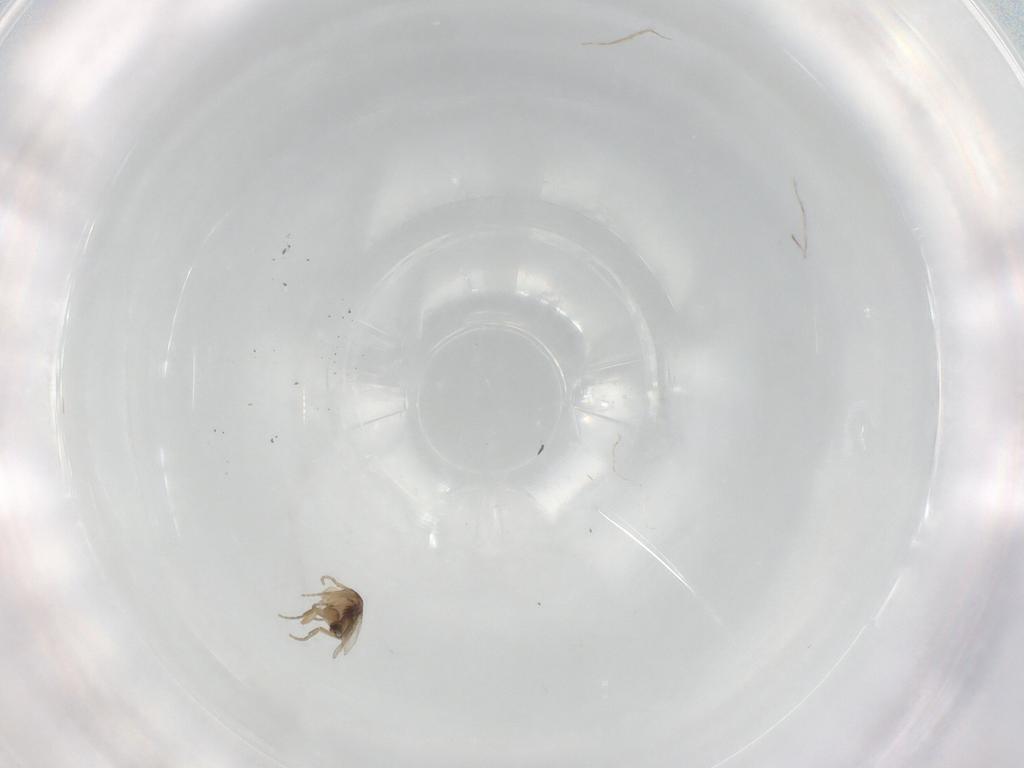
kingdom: Animalia
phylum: Arthropoda
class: Insecta
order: Diptera
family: Phoridae
